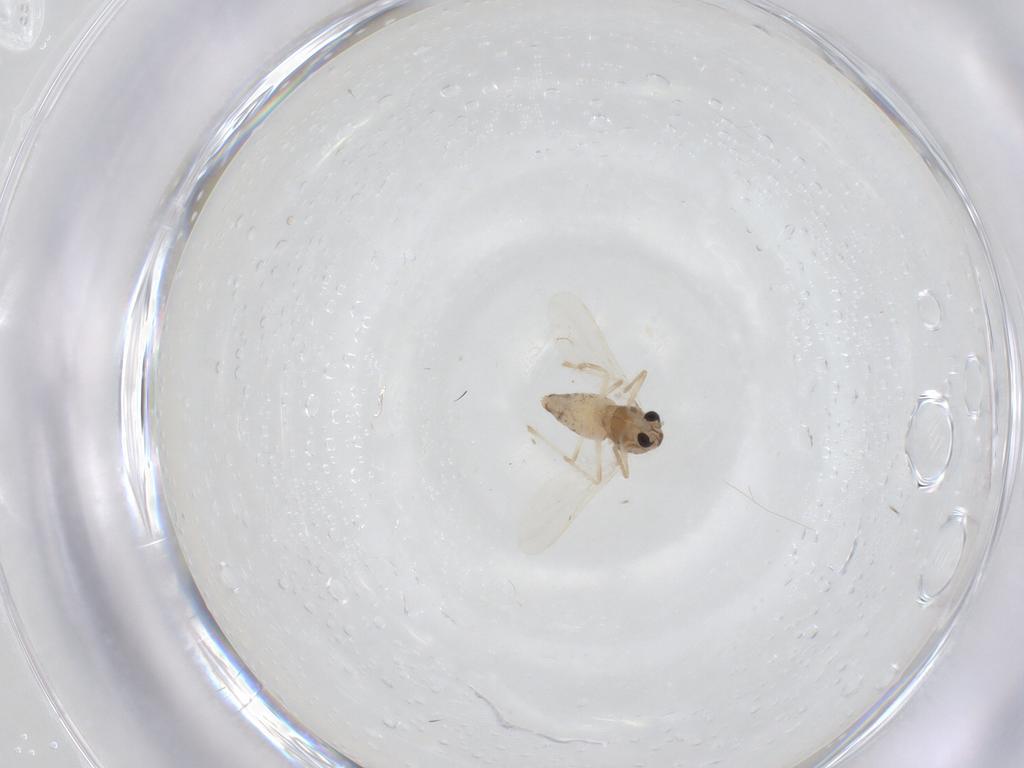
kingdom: Animalia
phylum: Arthropoda
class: Insecta
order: Diptera
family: Chironomidae
